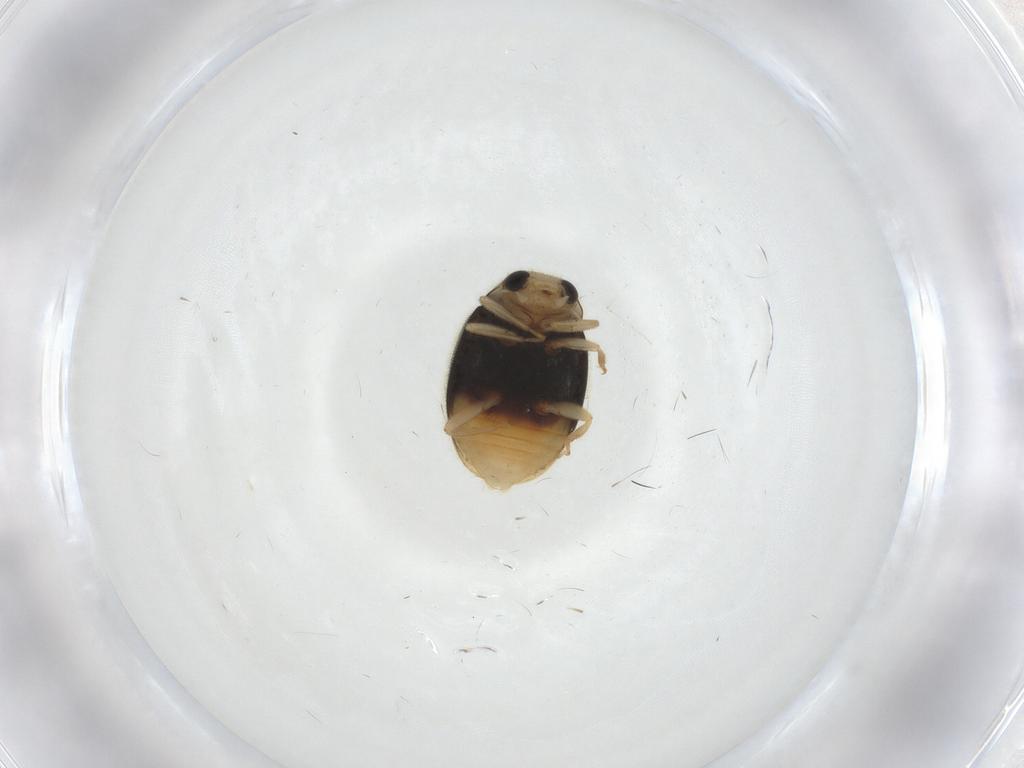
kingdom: Animalia
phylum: Arthropoda
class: Insecta
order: Coleoptera
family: Coccinellidae
